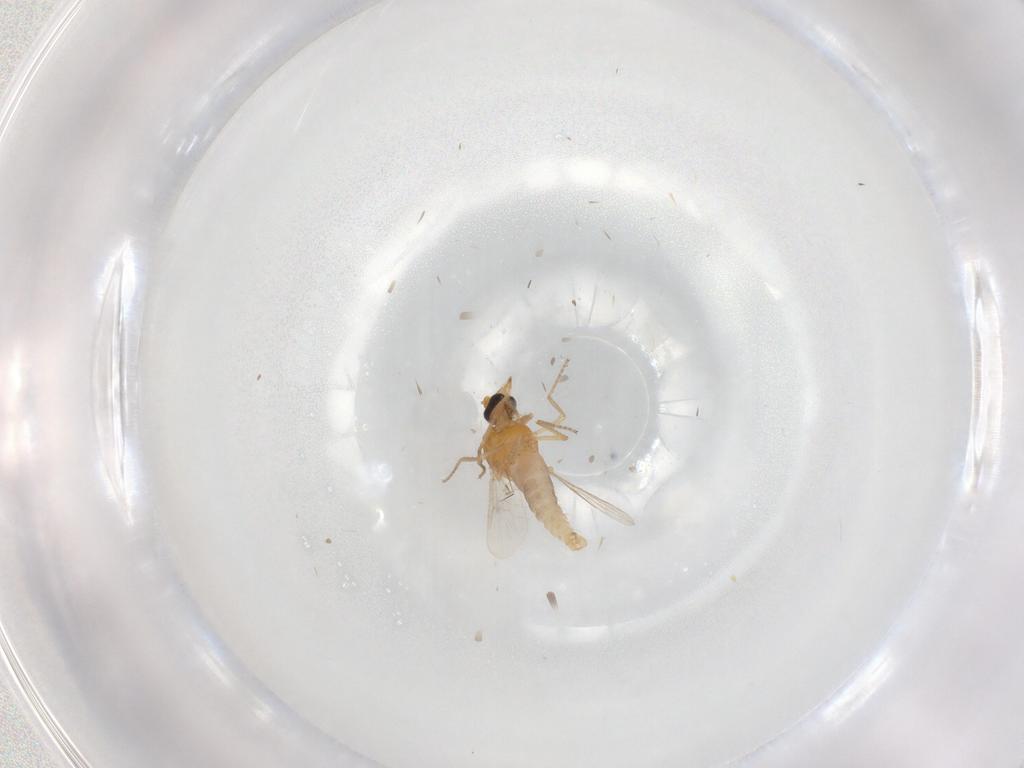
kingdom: Animalia
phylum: Arthropoda
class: Insecta
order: Diptera
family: Ceratopogonidae
